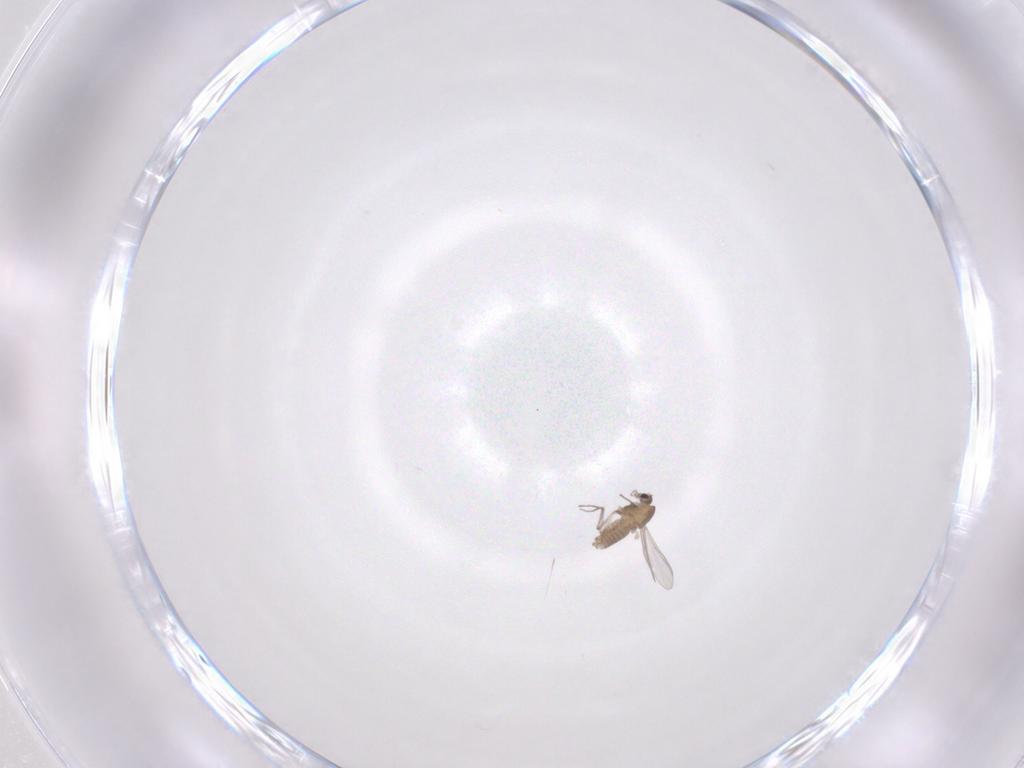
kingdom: Animalia
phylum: Arthropoda
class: Insecta
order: Diptera
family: Chironomidae
